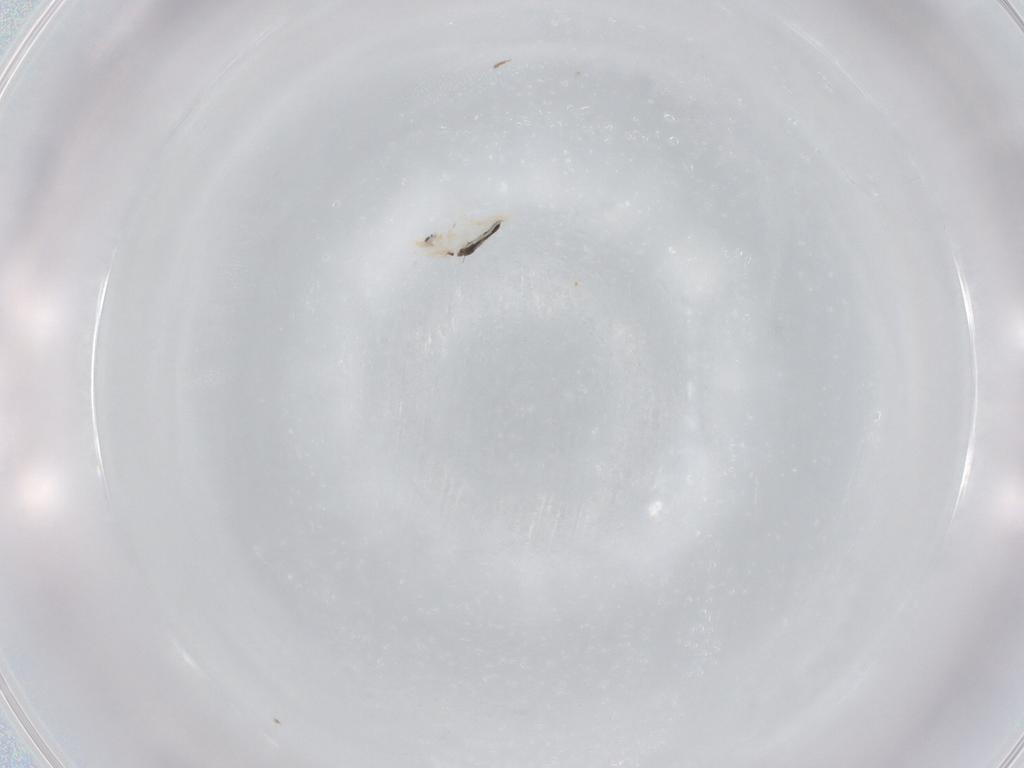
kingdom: Animalia
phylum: Arthropoda
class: Collembola
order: Entomobryomorpha
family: Entomobryidae
